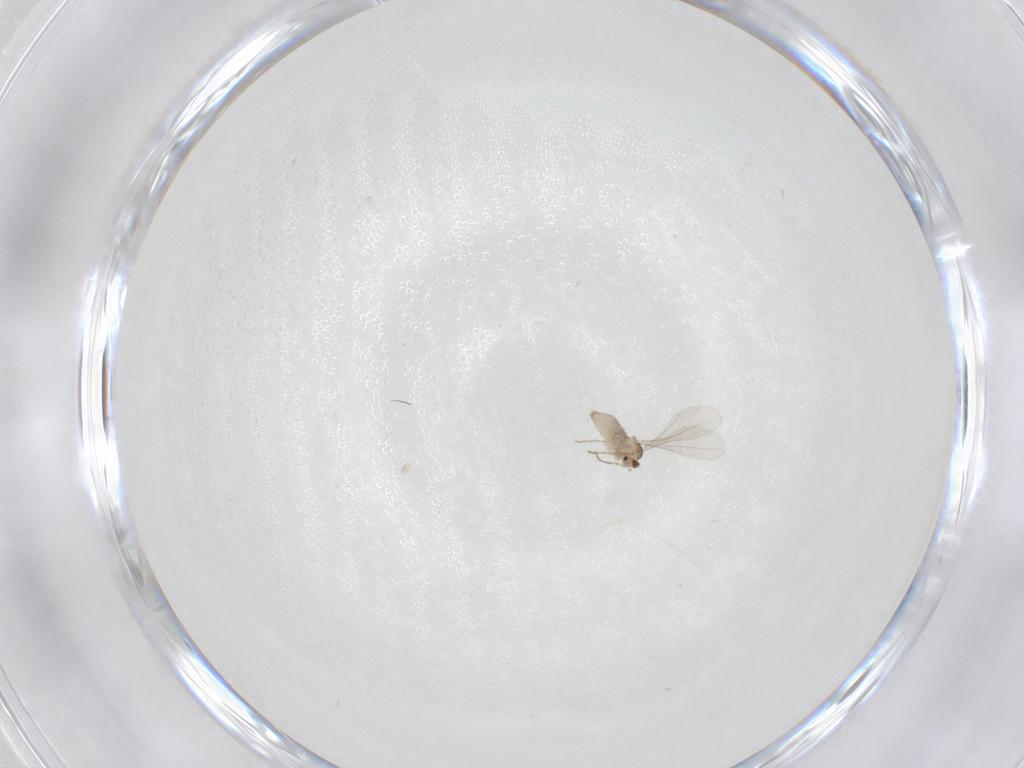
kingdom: Animalia
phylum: Arthropoda
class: Insecta
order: Diptera
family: Cecidomyiidae
